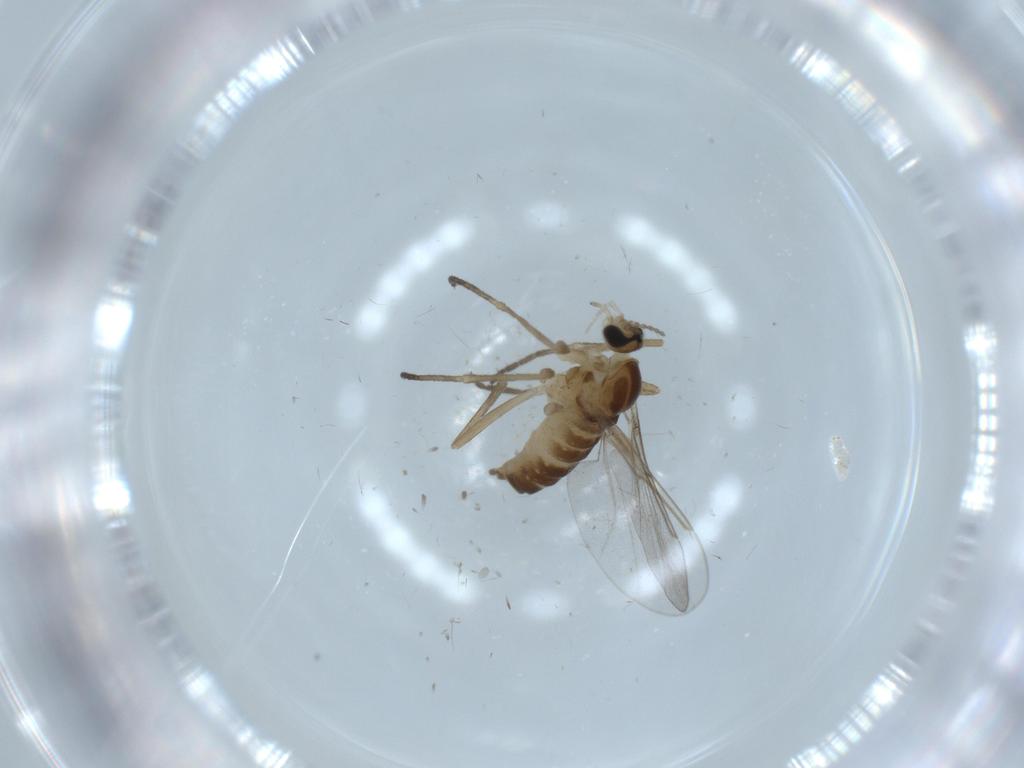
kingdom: Animalia
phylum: Arthropoda
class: Insecta
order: Diptera
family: Cecidomyiidae
